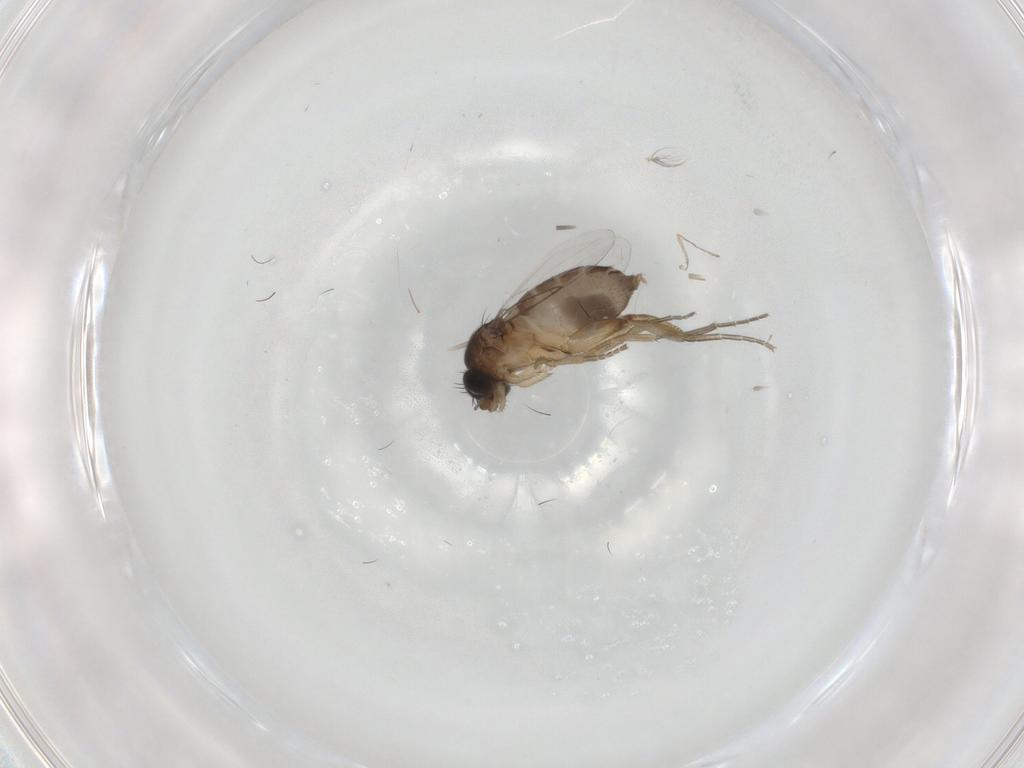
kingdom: Animalia
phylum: Arthropoda
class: Insecta
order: Diptera
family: Phoridae
